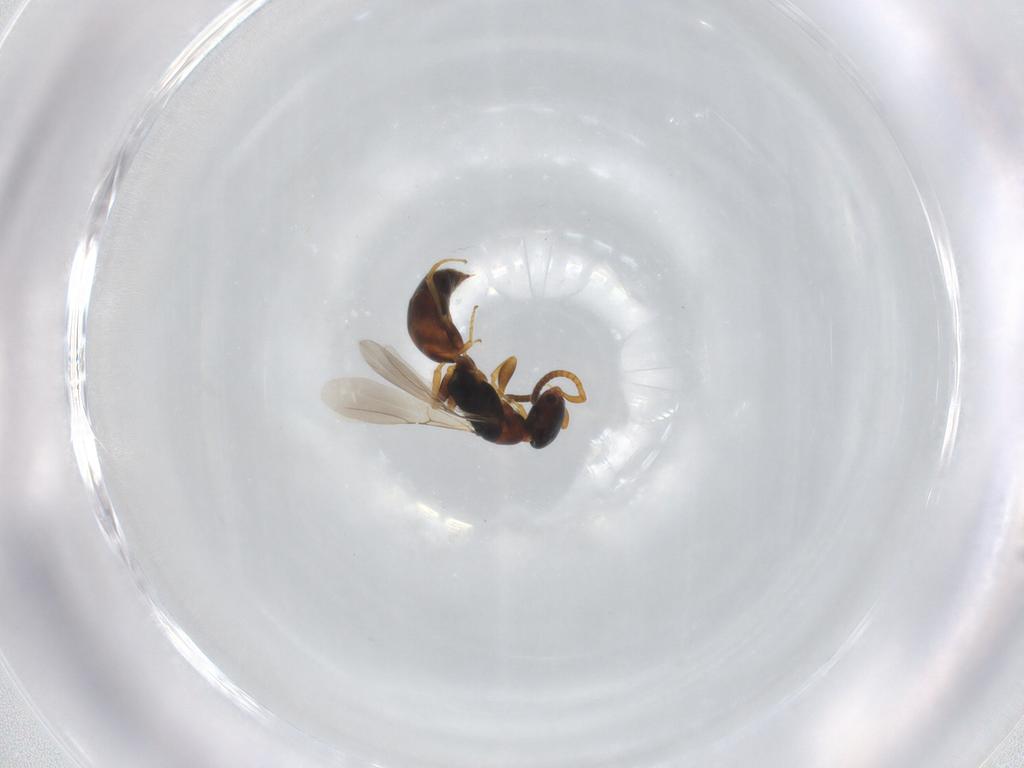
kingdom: Animalia
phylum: Arthropoda
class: Insecta
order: Hymenoptera
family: Bethylidae
